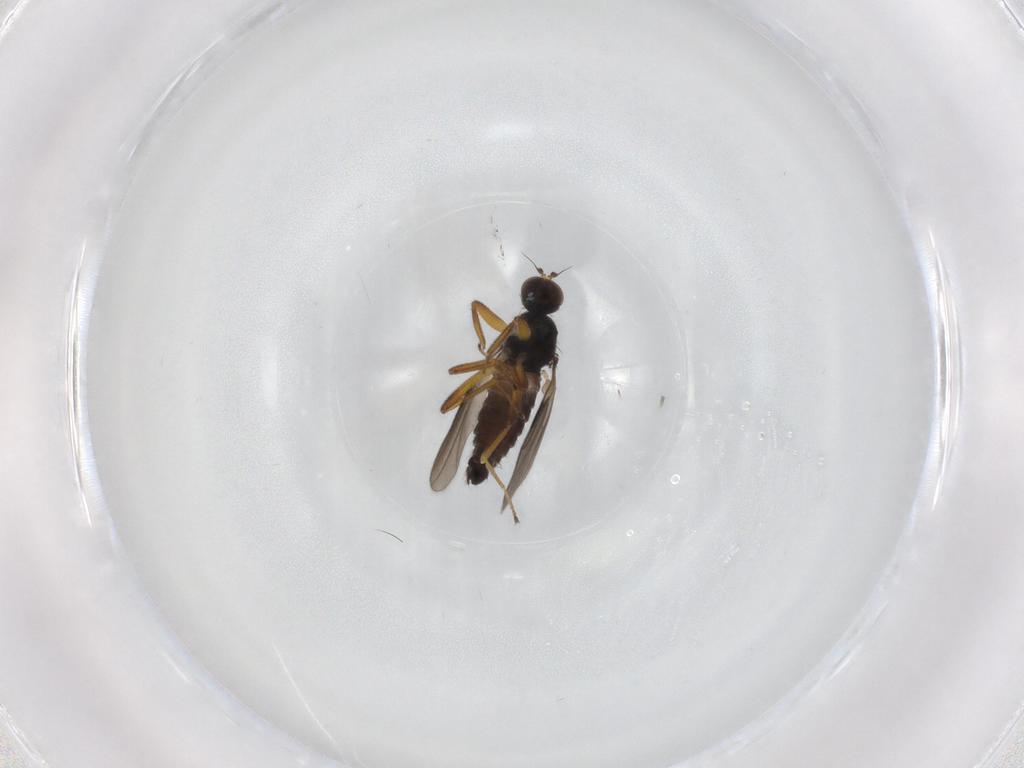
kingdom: Animalia
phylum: Arthropoda
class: Insecta
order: Diptera
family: Hybotidae
